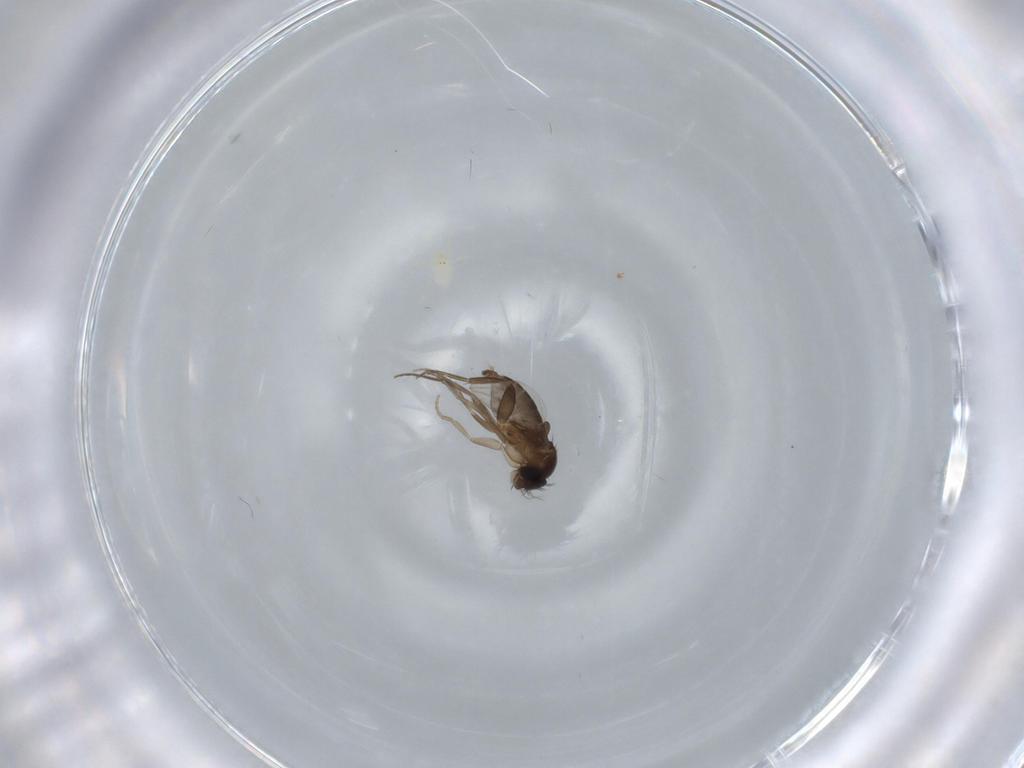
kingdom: Animalia
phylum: Arthropoda
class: Insecta
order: Diptera
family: Phoridae
